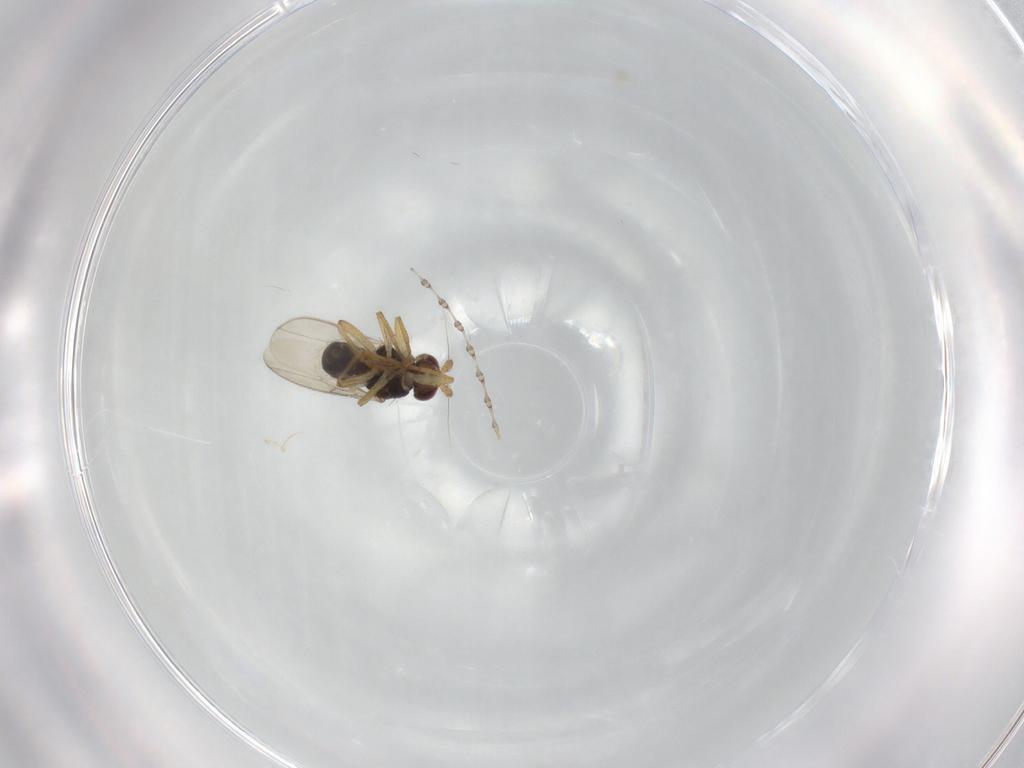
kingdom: Animalia
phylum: Arthropoda
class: Insecta
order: Diptera
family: Sphaeroceridae
